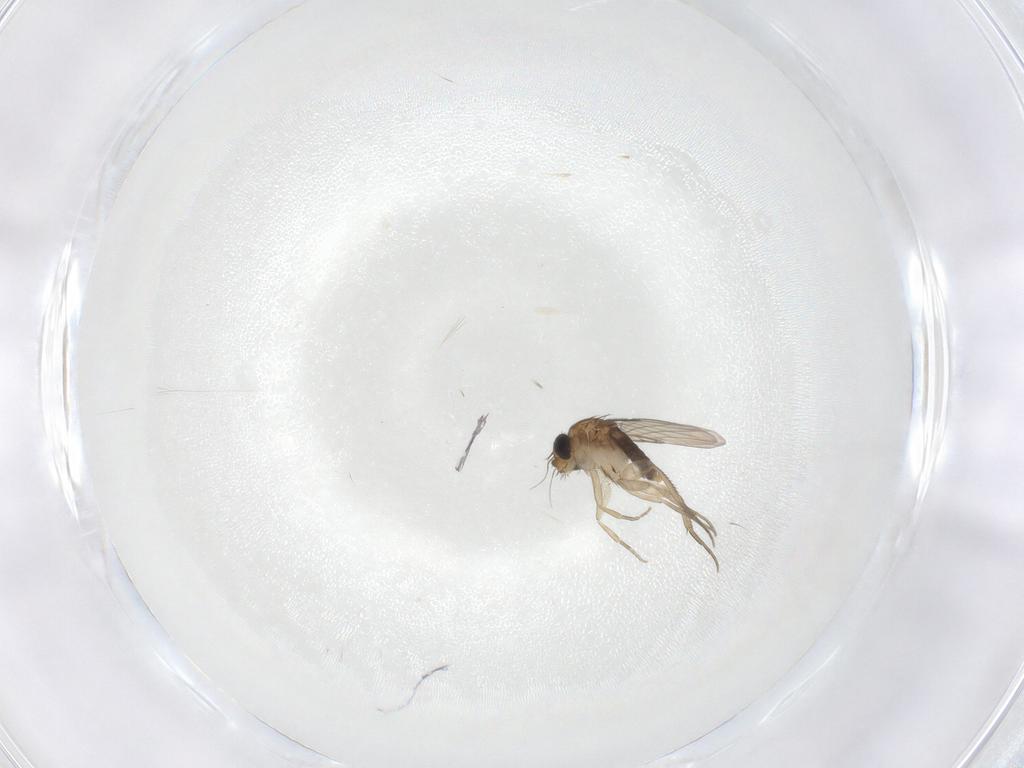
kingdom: Animalia
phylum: Arthropoda
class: Insecta
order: Diptera
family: Phoridae
